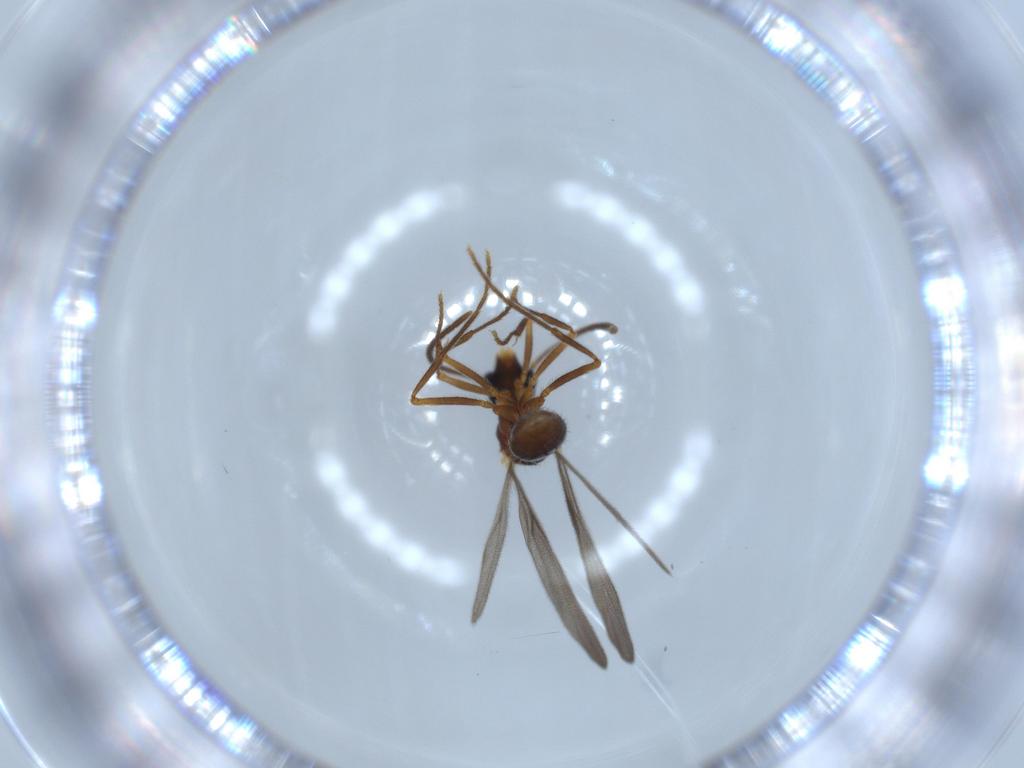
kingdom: Animalia
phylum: Arthropoda
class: Insecta
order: Hymenoptera
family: Formicidae
